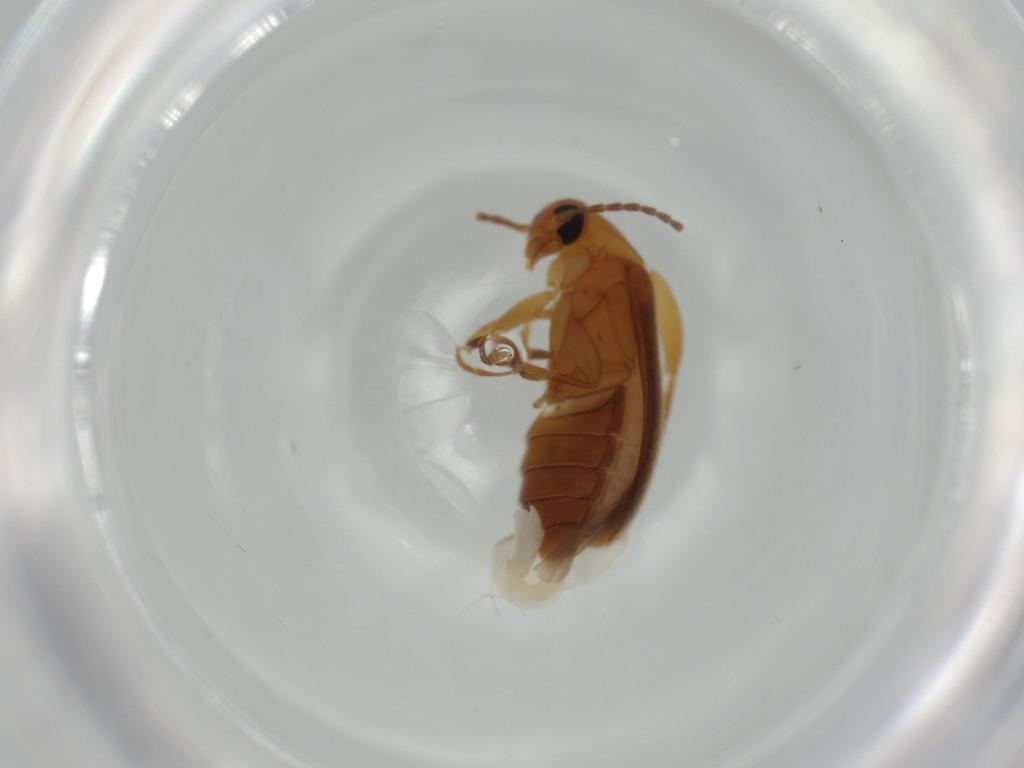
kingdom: Animalia
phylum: Arthropoda
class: Insecta
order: Coleoptera
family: Scraptiidae
